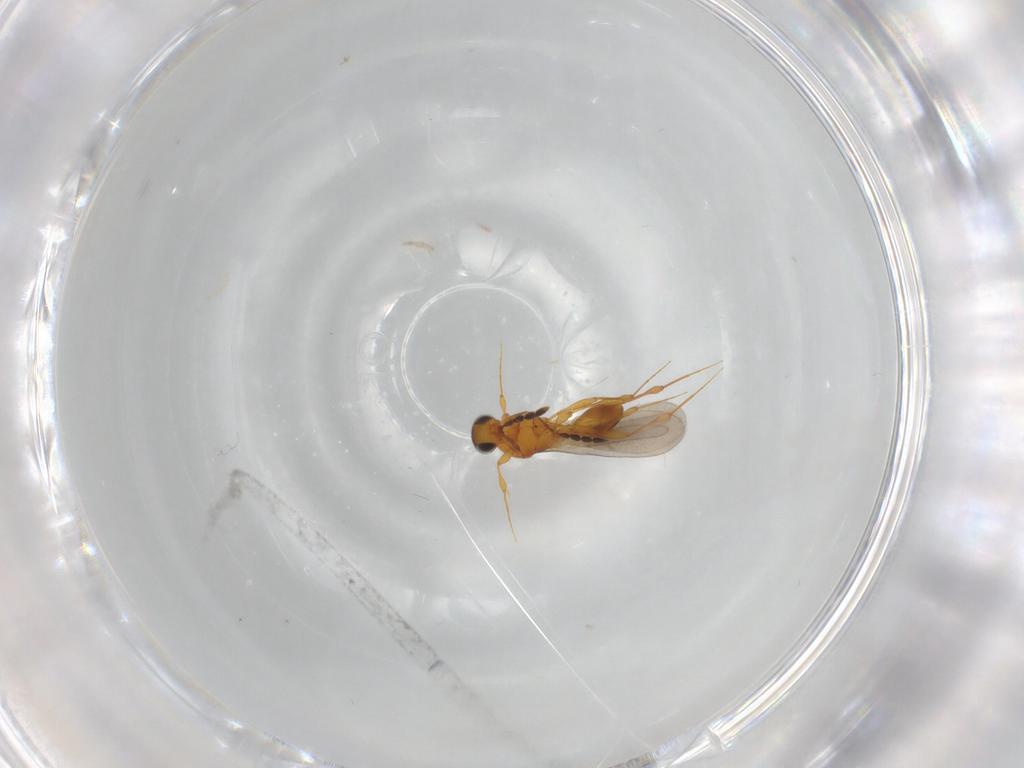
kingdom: Animalia
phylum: Arthropoda
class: Insecta
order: Hymenoptera
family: Platygastridae
